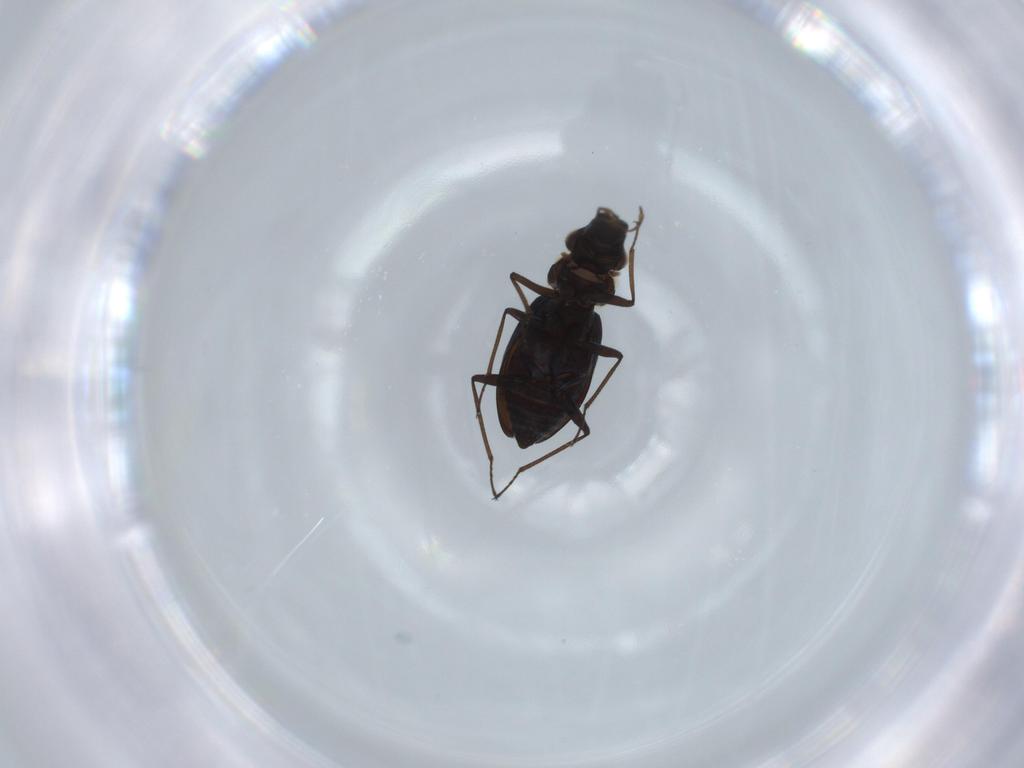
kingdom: Animalia
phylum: Arthropoda
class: Insecta
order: Coleoptera
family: Hydraenidae
